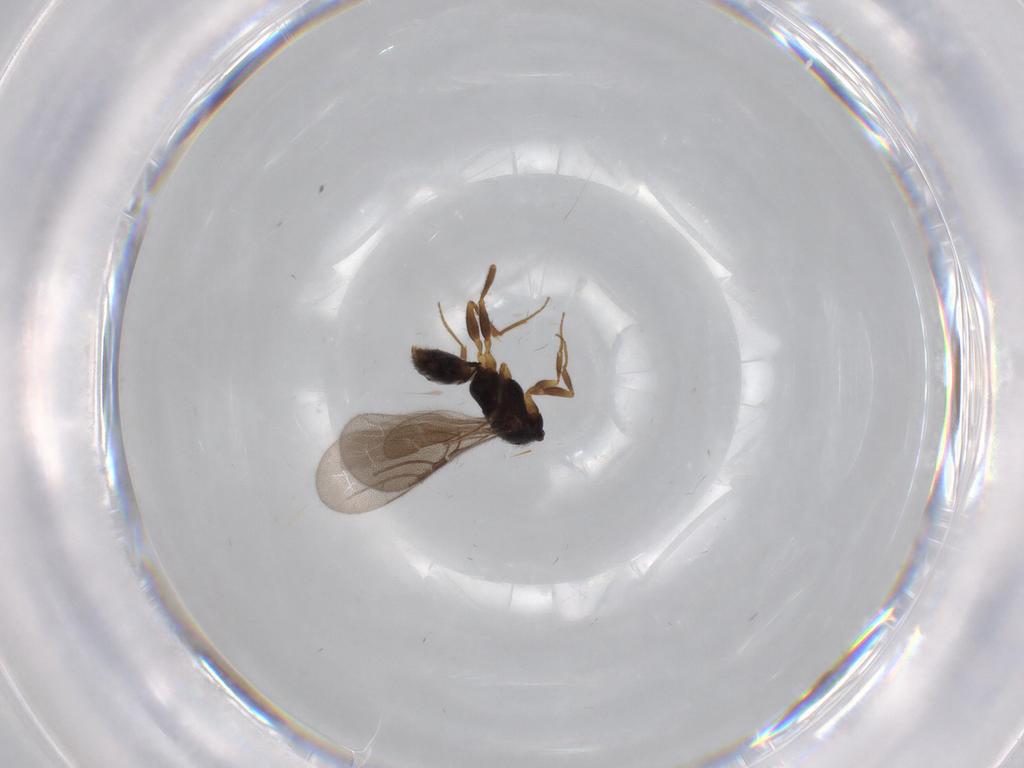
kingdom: Animalia
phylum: Arthropoda
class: Insecta
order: Hymenoptera
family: Bethylidae
